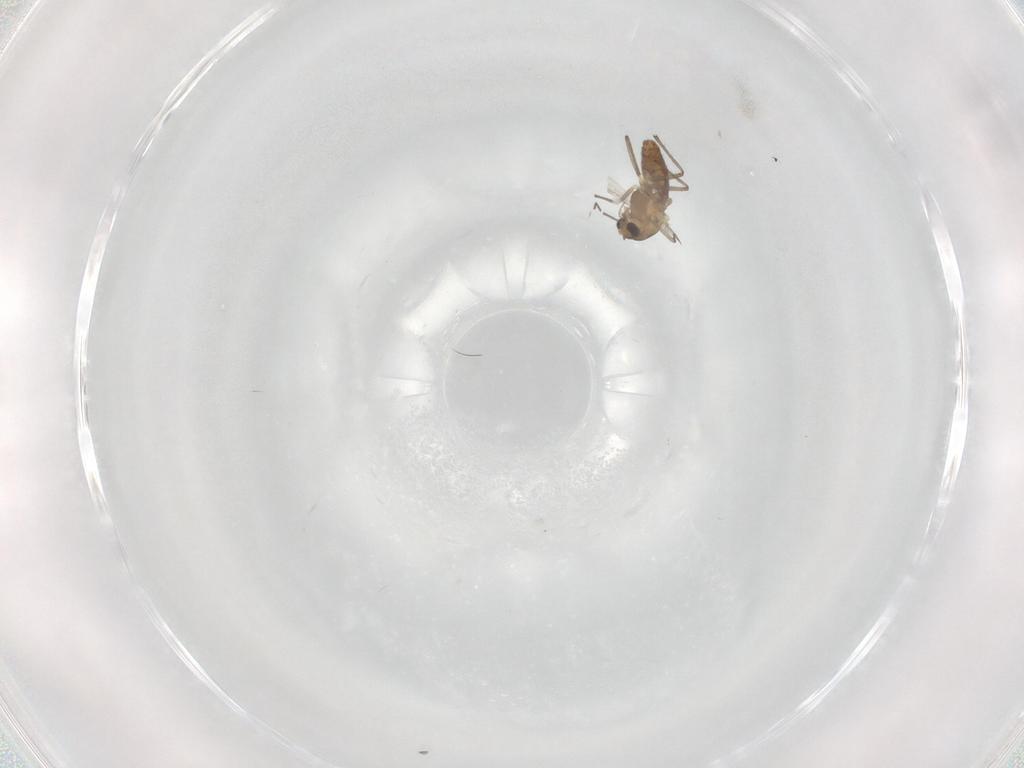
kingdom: Animalia
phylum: Arthropoda
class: Insecta
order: Diptera
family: Chironomidae
